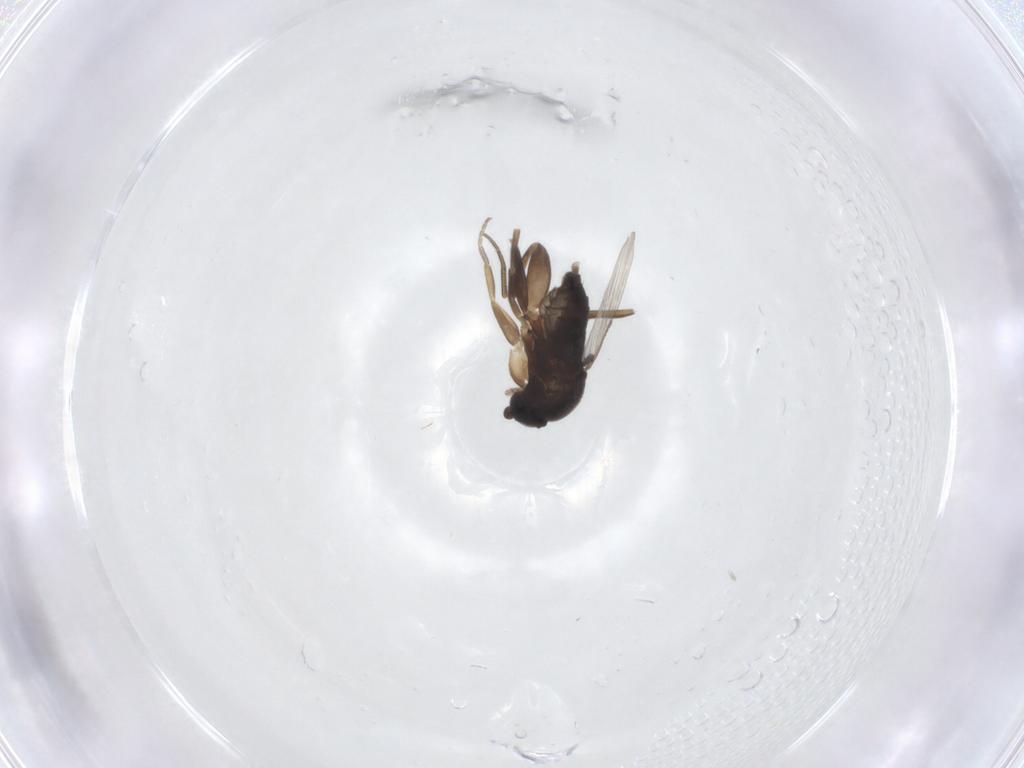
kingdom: Animalia
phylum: Arthropoda
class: Insecta
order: Diptera
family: Phoridae
